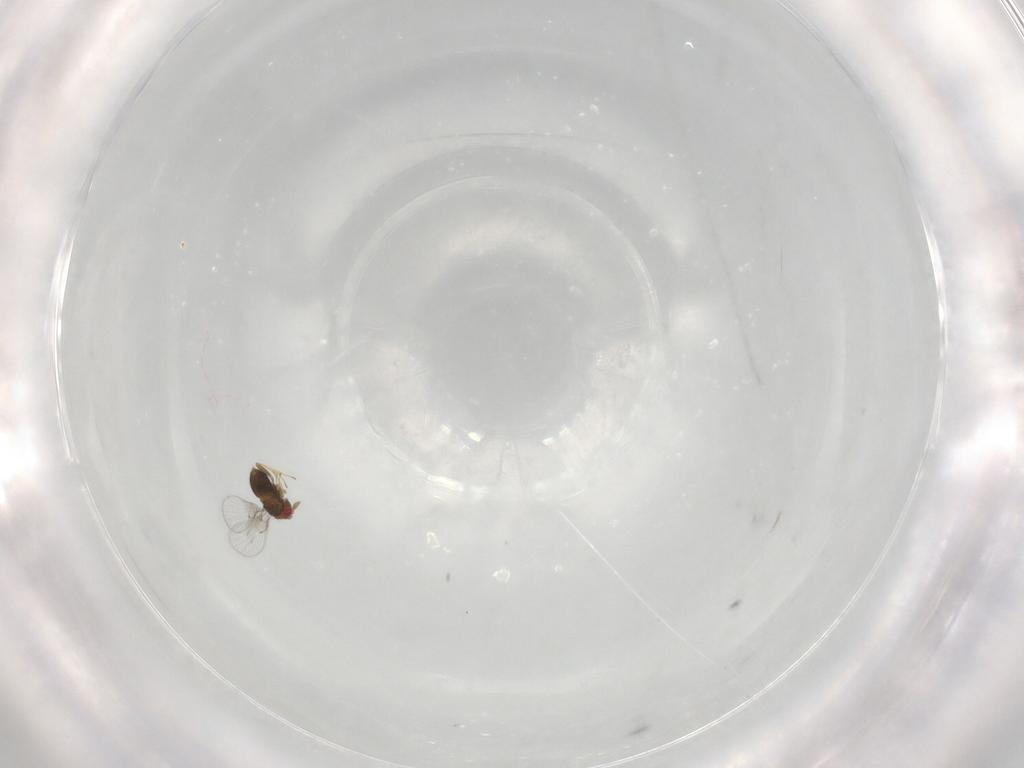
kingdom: Animalia
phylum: Arthropoda
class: Insecta
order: Hymenoptera
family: Trichogrammatidae
